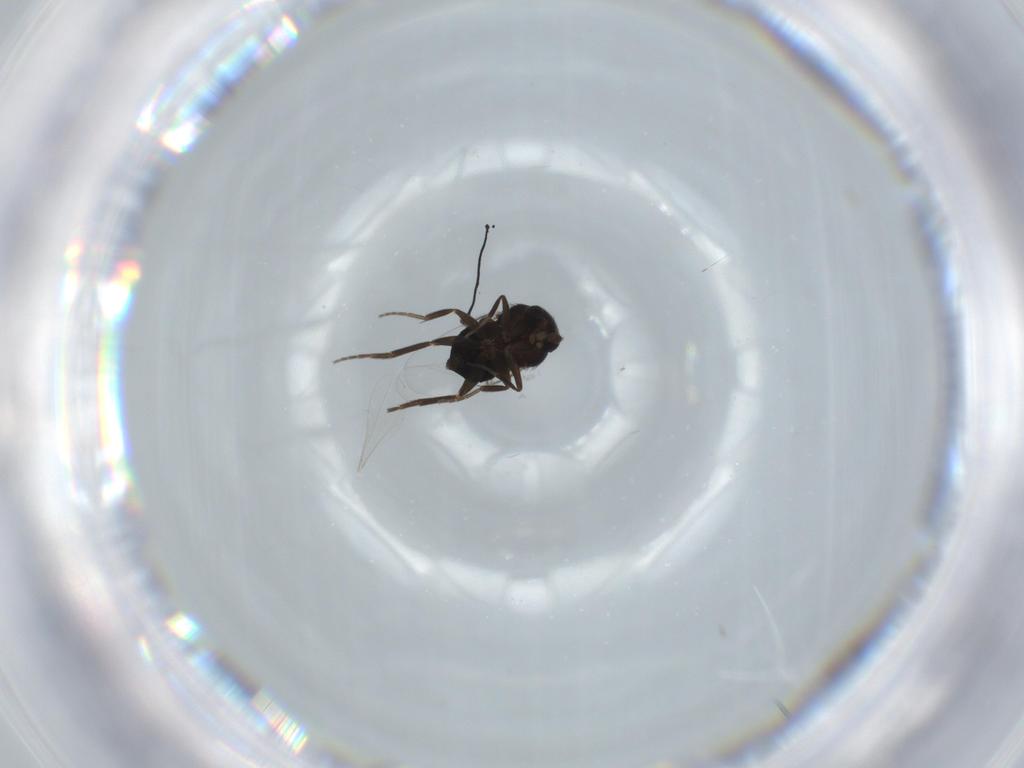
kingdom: Animalia
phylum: Arthropoda
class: Insecta
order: Diptera
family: Phoridae
